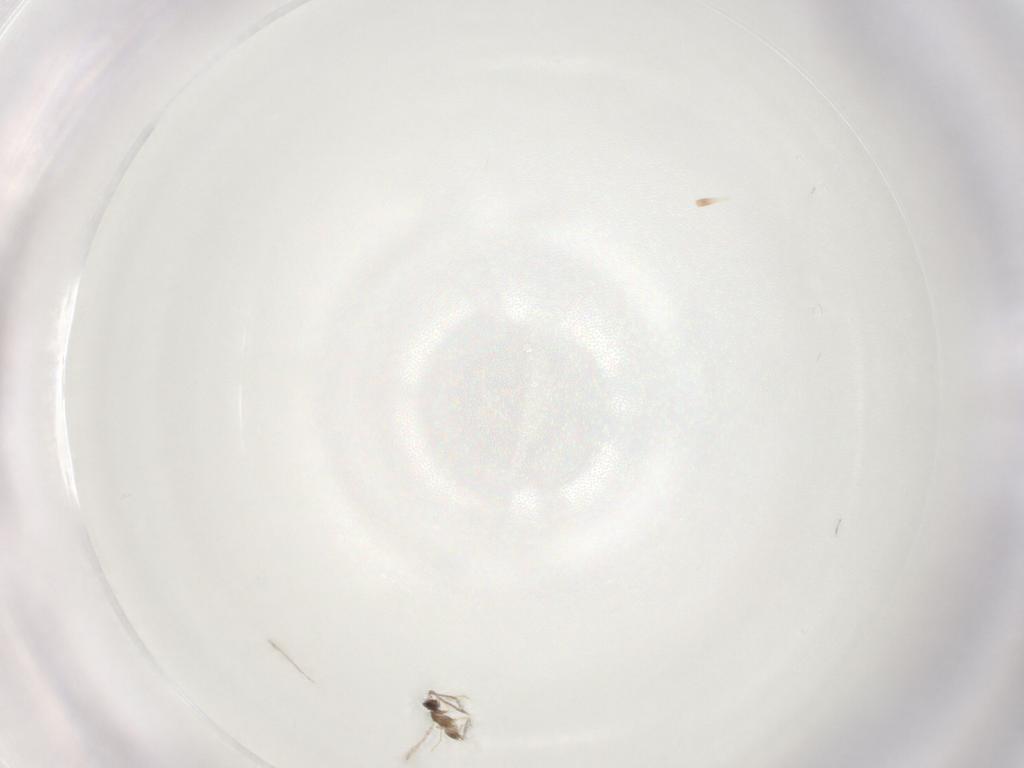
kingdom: Animalia
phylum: Arthropoda
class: Insecta
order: Hymenoptera
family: Mymaridae
